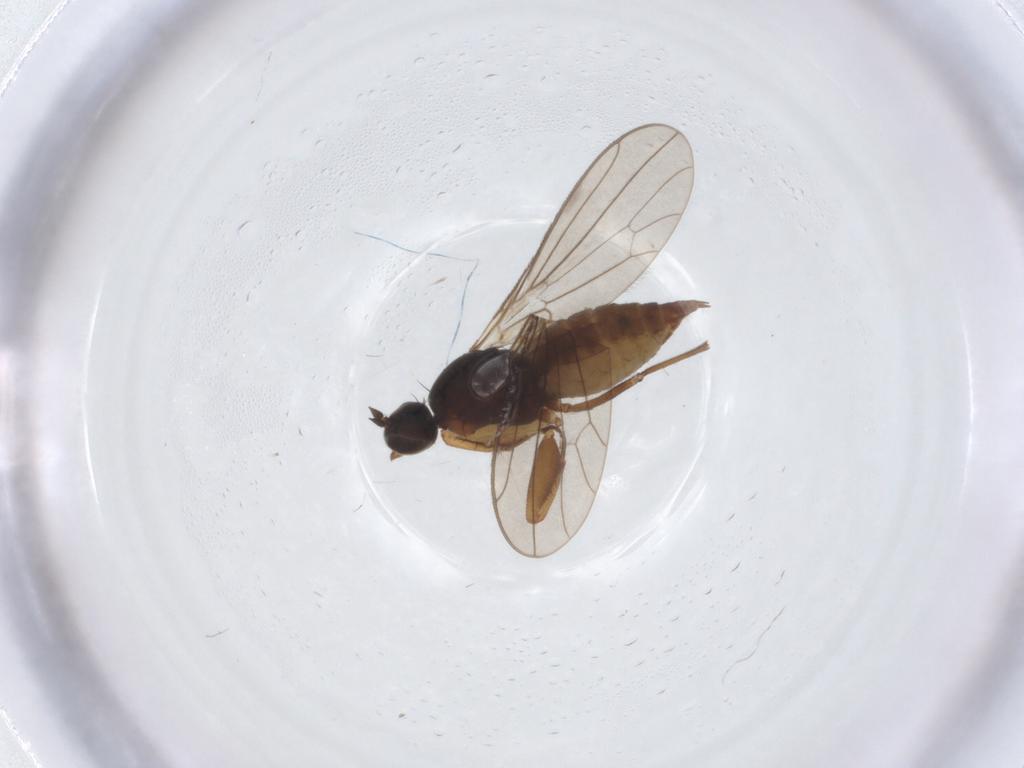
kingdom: Animalia
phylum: Arthropoda
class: Insecta
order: Diptera
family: Empididae
